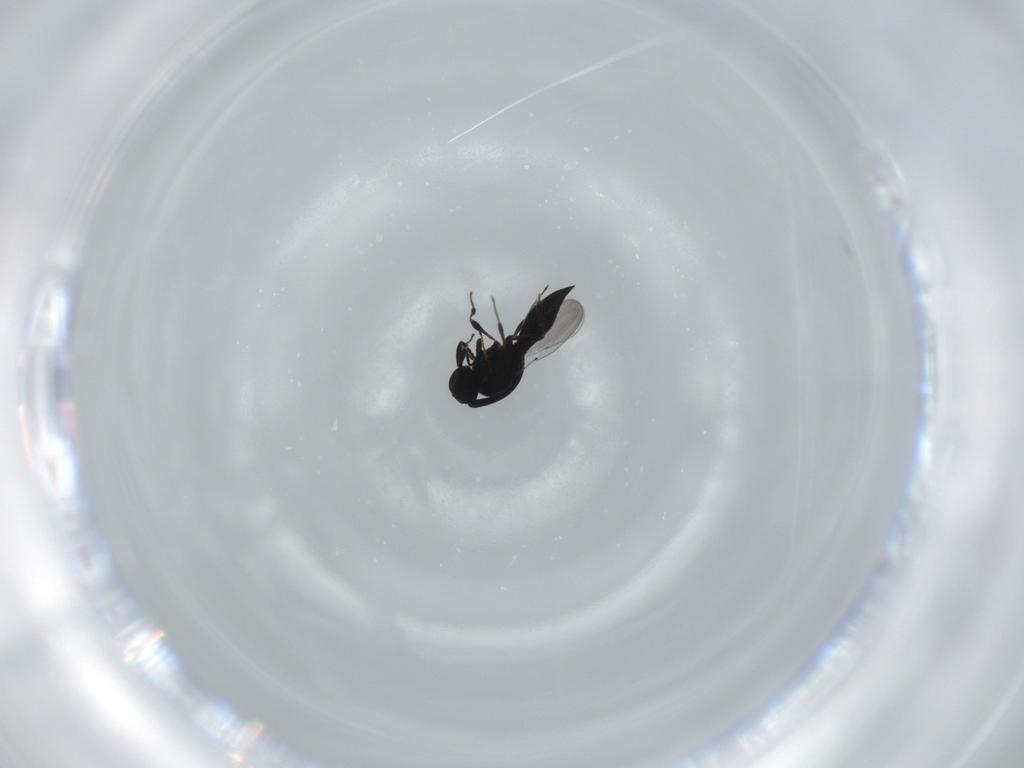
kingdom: Animalia
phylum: Arthropoda
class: Insecta
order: Hymenoptera
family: Platygastridae
